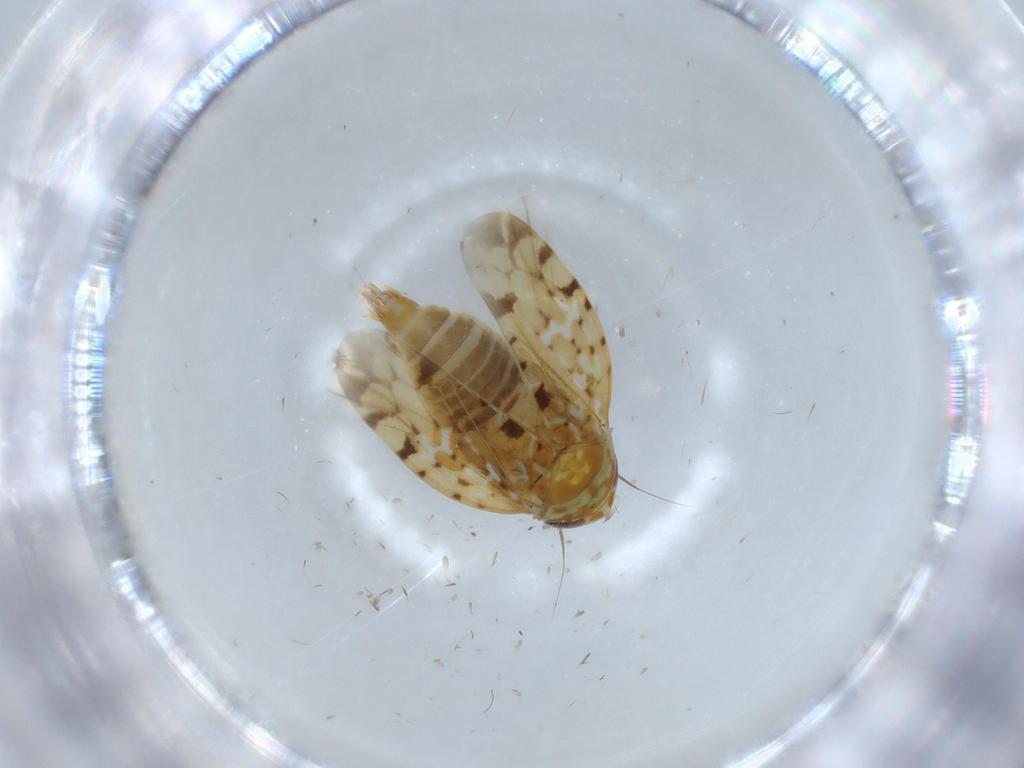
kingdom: Animalia
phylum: Arthropoda
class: Insecta
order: Hemiptera
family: Cicadellidae
